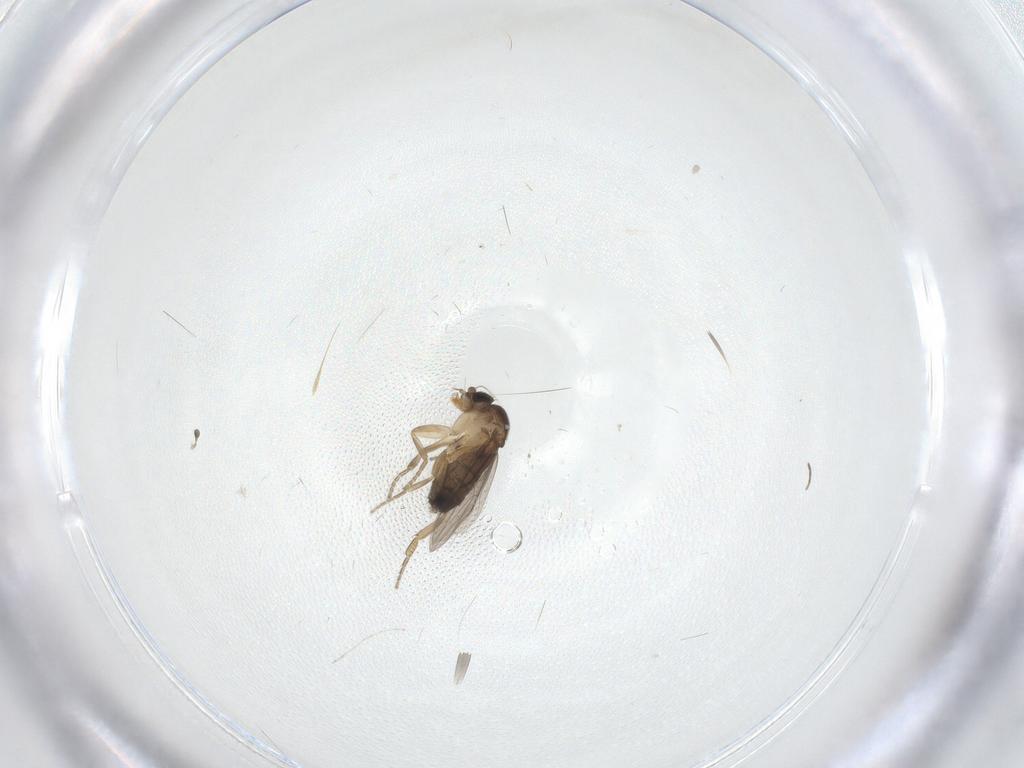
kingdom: Animalia
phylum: Arthropoda
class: Insecta
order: Diptera
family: Phoridae
